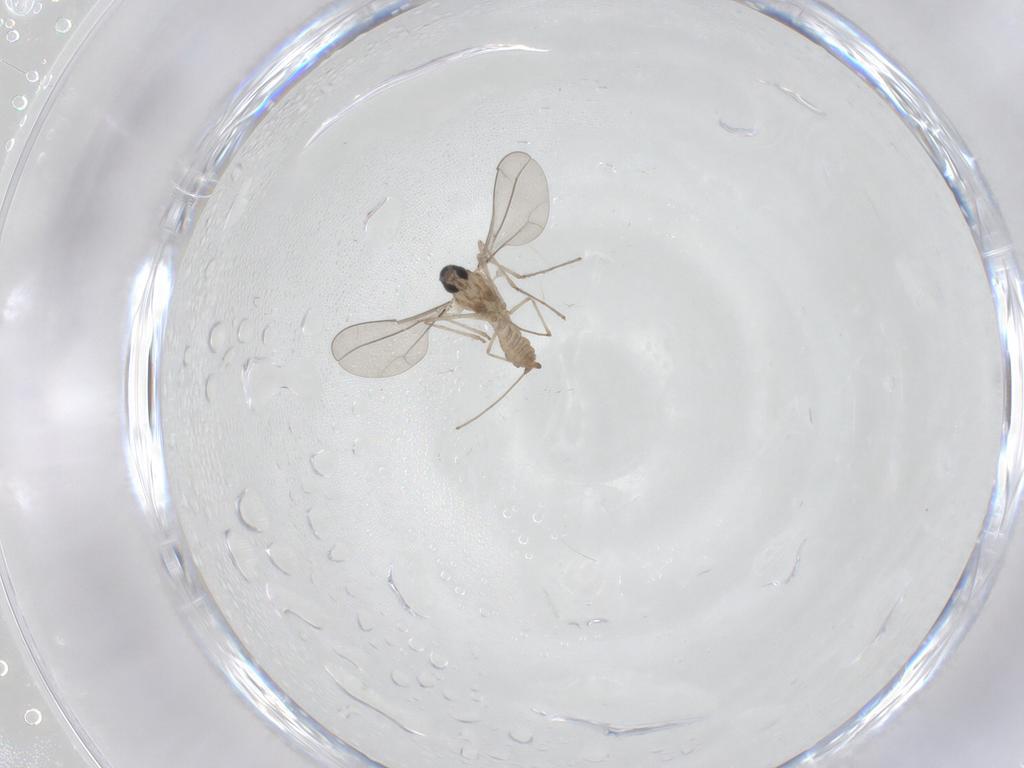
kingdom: Animalia
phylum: Arthropoda
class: Insecta
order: Diptera
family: Cecidomyiidae
